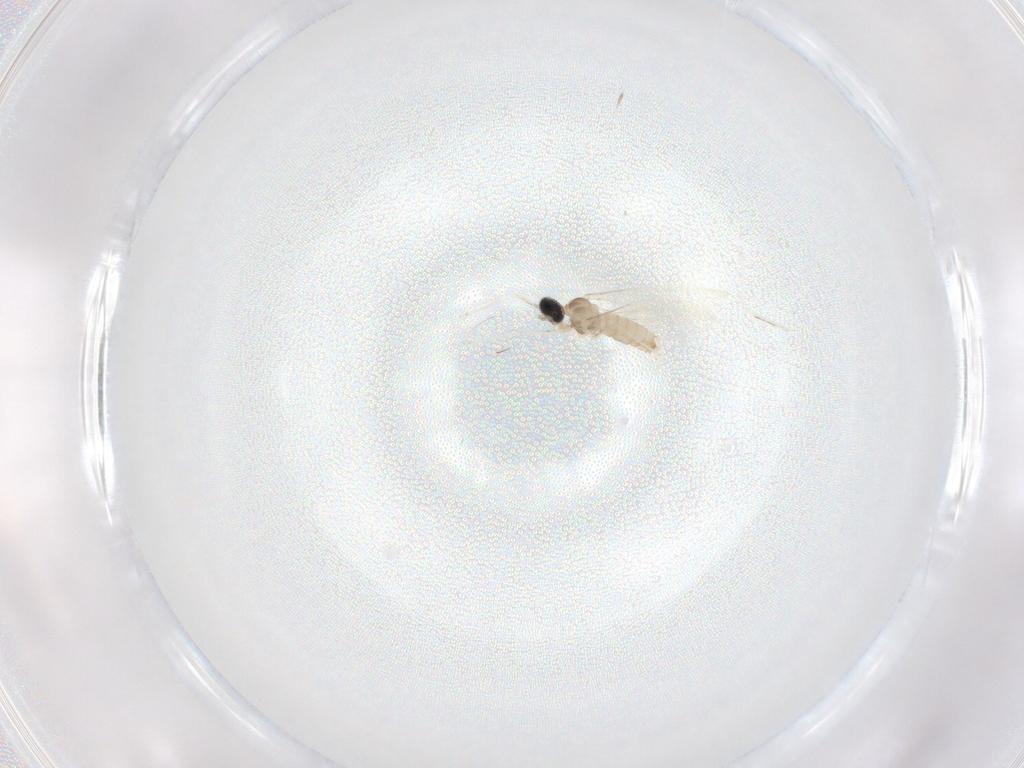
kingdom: Animalia
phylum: Arthropoda
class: Insecta
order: Diptera
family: Cecidomyiidae
